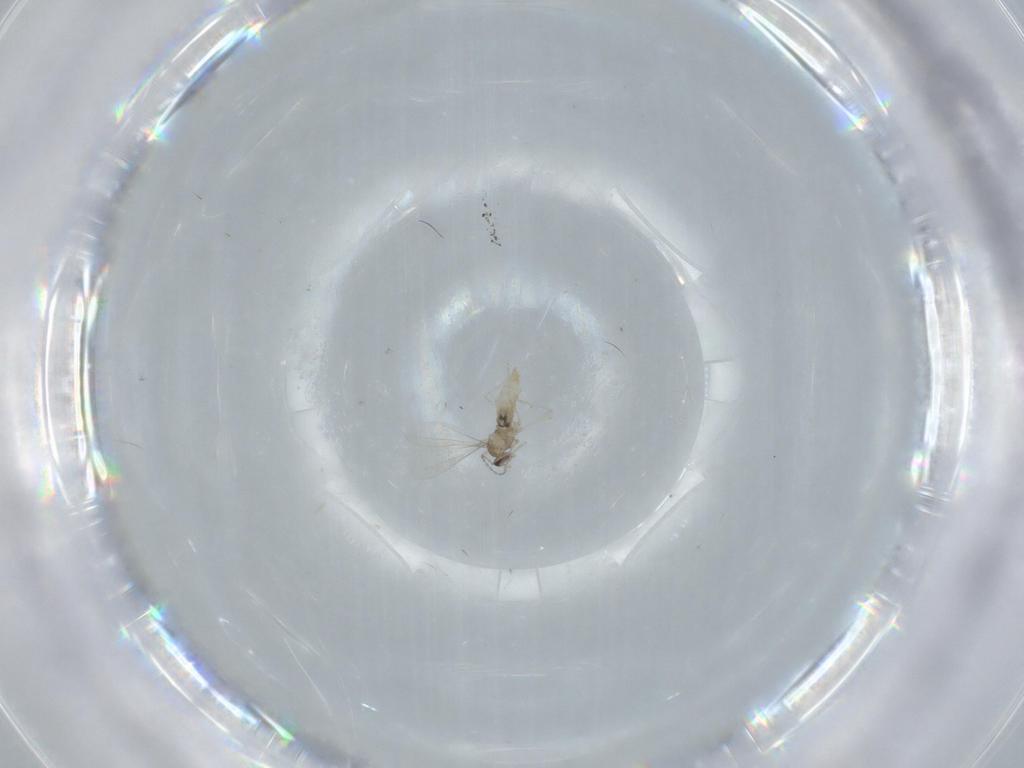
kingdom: Animalia
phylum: Arthropoda
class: Insecta
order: Diptera
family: Cecidomyiidae
